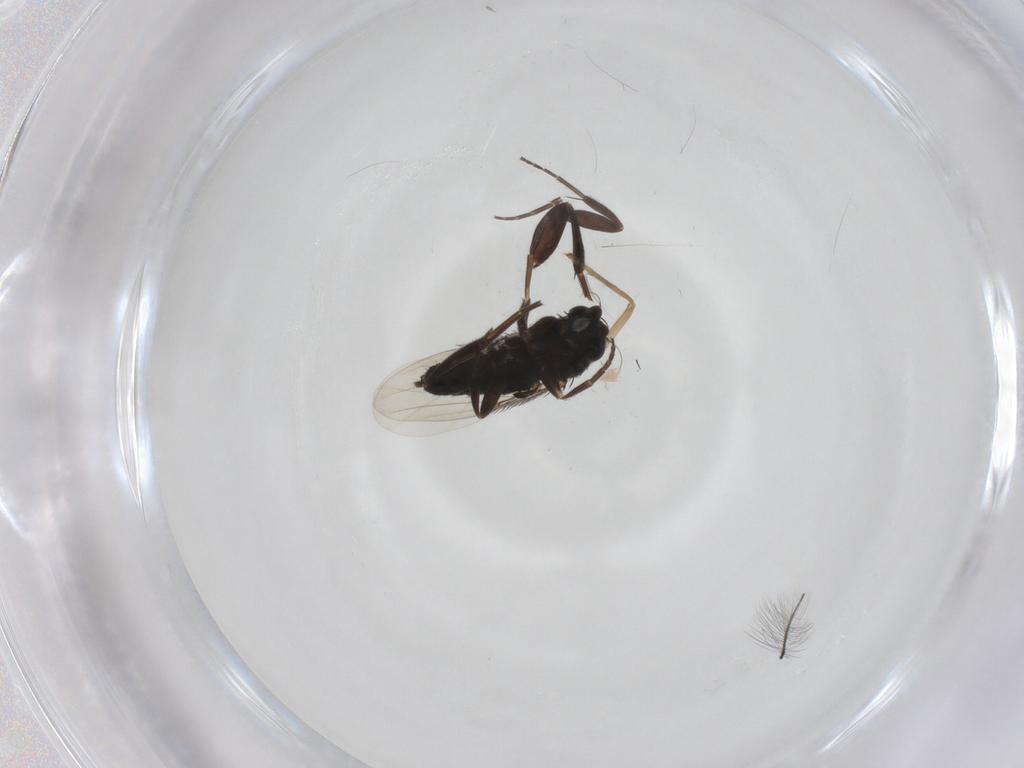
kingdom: Animalia
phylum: Arthropoda
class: Insecta
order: Diptera
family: Phoridae
